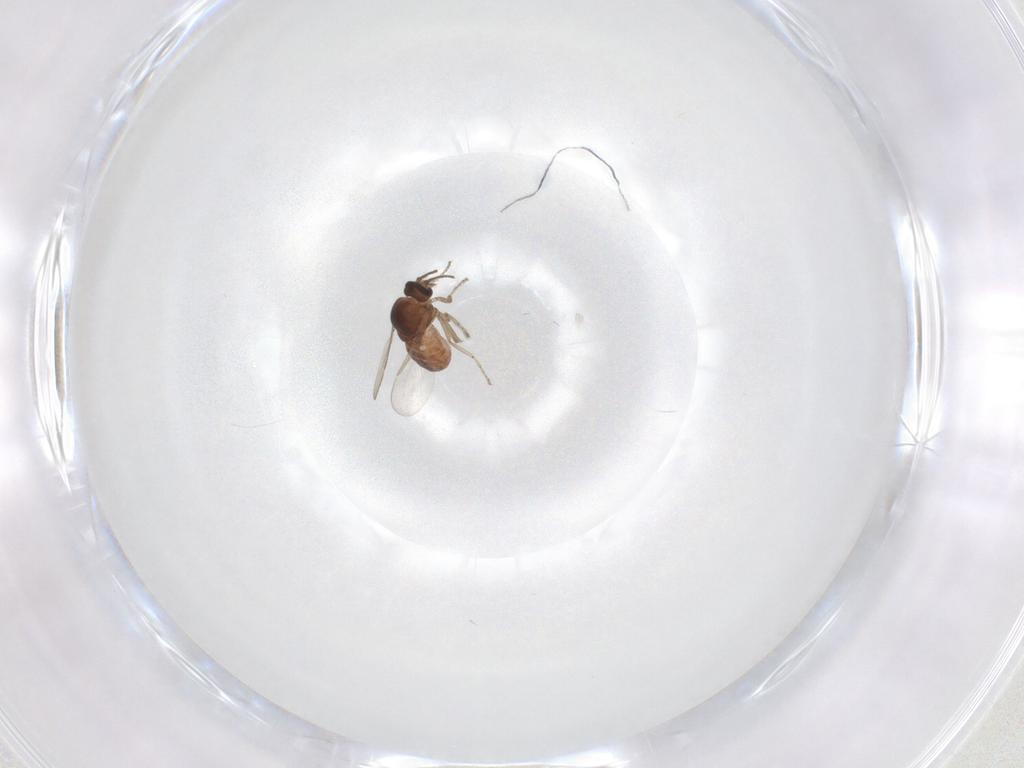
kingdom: Animalia
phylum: Arthropoda
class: Insecta
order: Diptera
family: Ceratopogonidae
